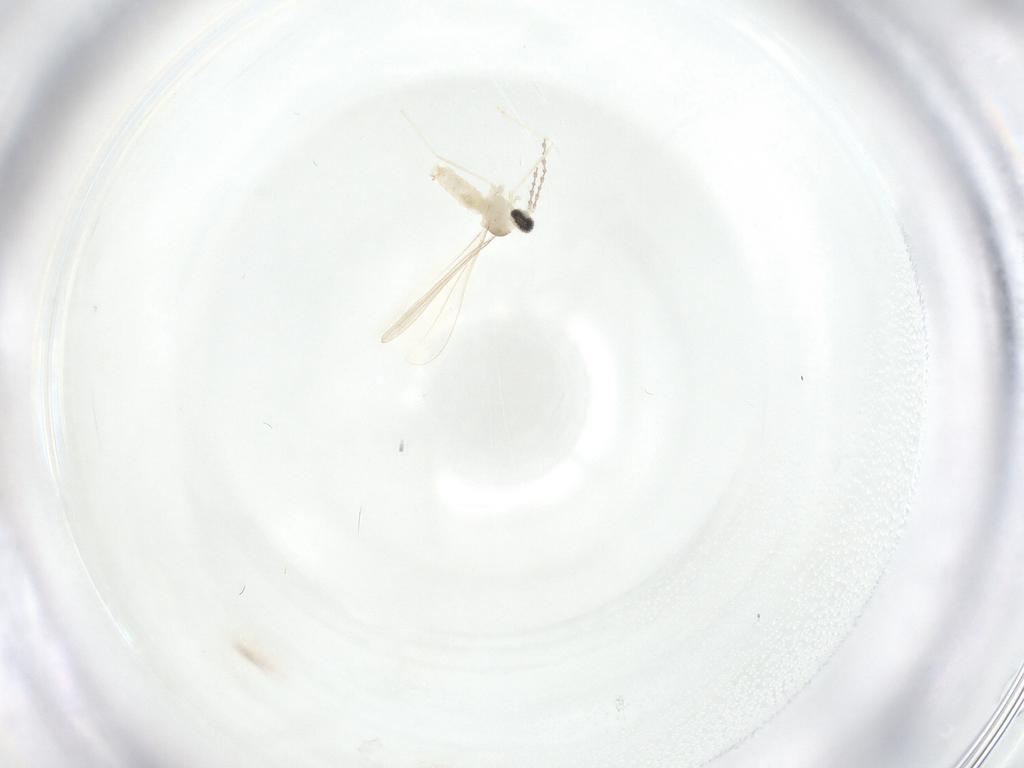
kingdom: Animalia
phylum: Arthropoda
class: Insecta
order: Diptera
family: Cecidomyiidae
